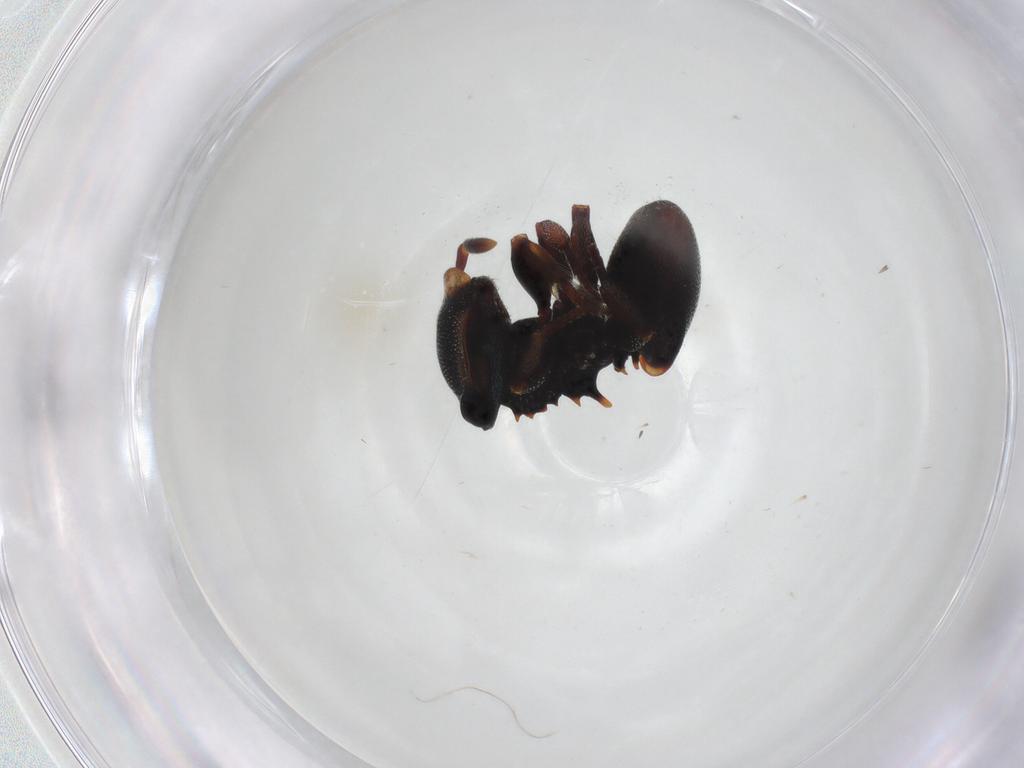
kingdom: Animalia
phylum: Arthropoda
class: Insecta
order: Hymenoptera
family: Formicidae
